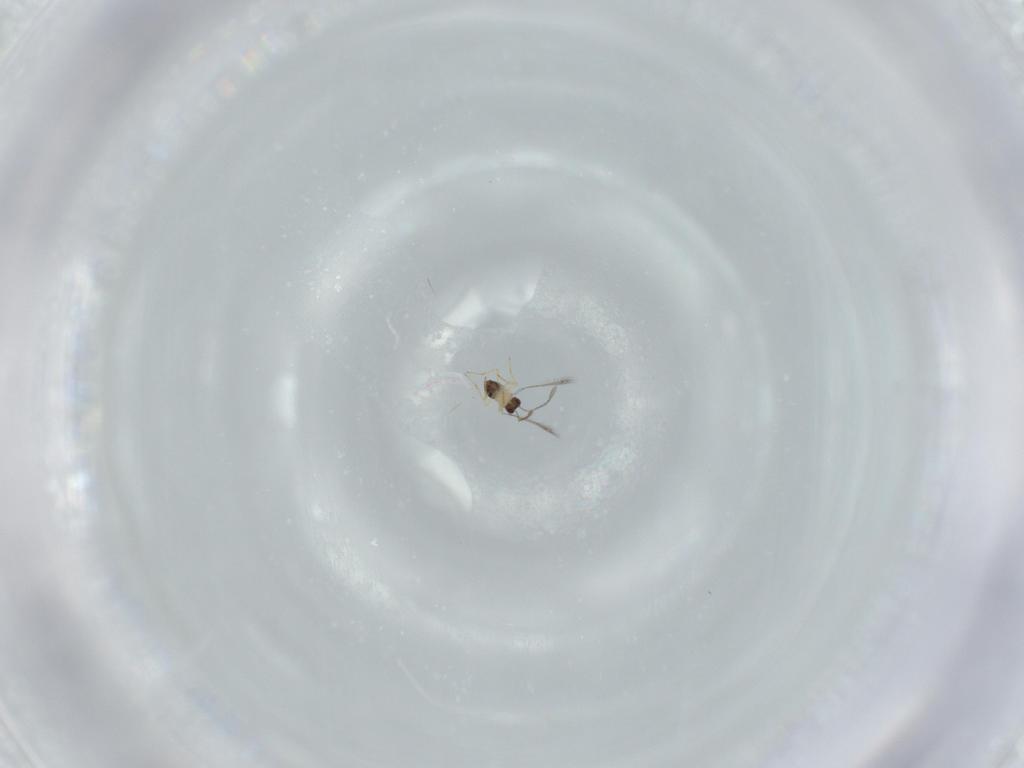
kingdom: Animalia
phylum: Arthropoda
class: Insecta
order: Hymenoptera
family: Mymaridae
